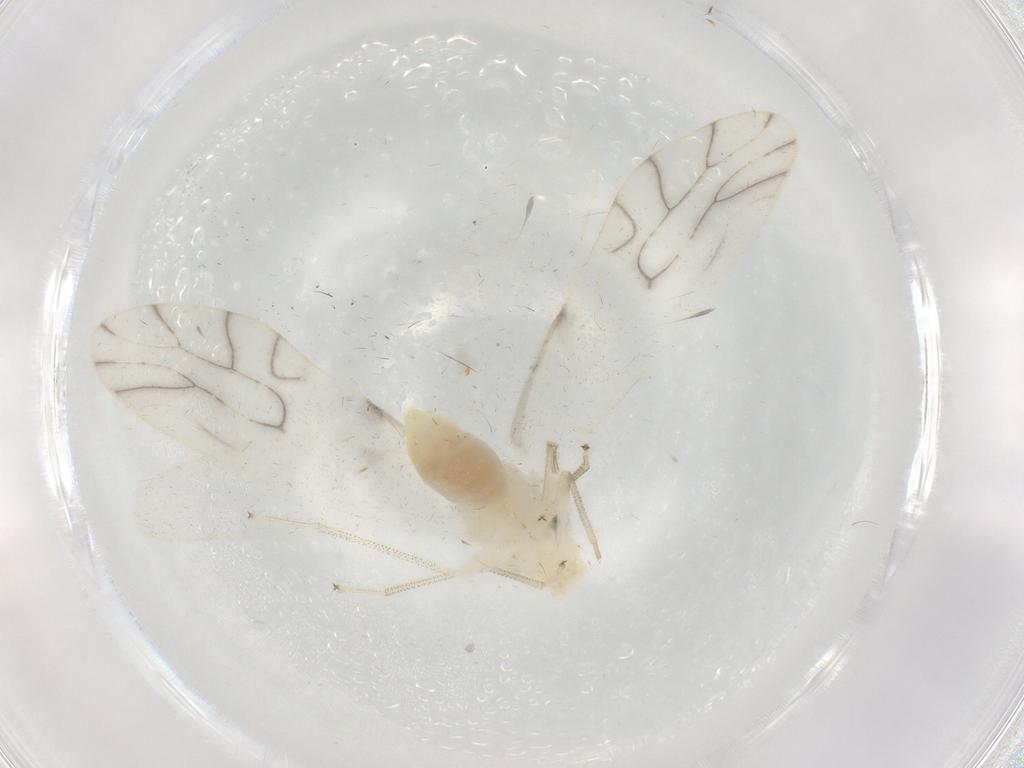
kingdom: Animalia
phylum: Arthropoda
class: Insecta
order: Psocodea
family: Caeciliusidae
